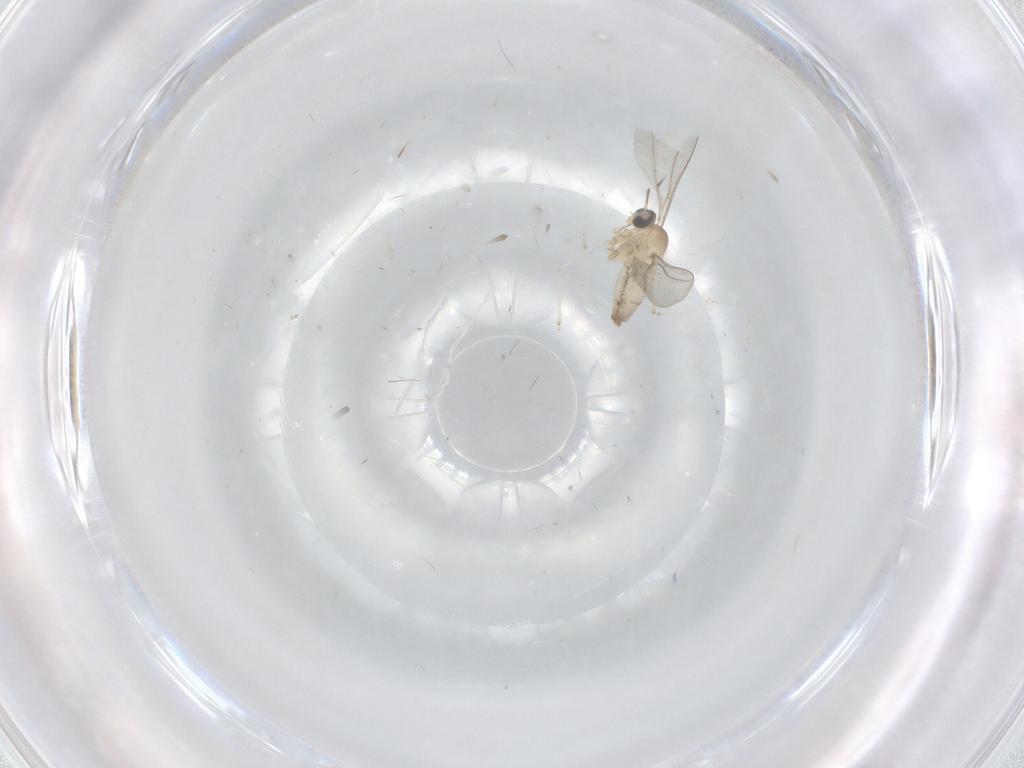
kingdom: Animalia
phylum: Arthropoda
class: Insecta
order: Diptera
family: Cecidomyiidae
